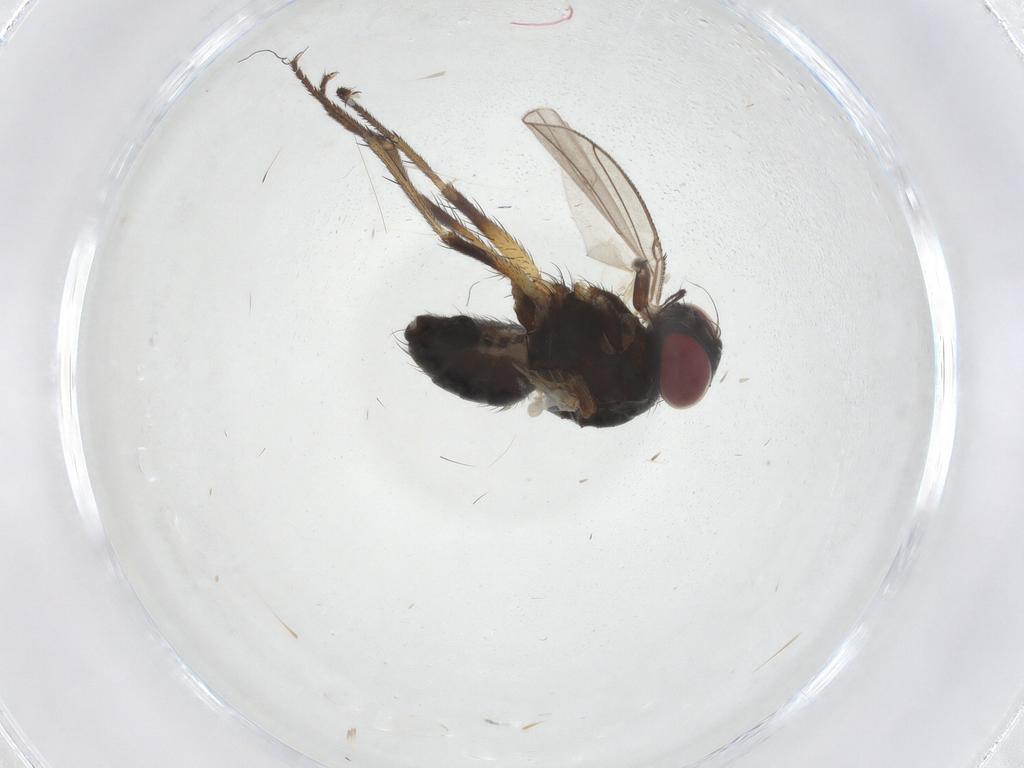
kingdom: Animalia
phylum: Arthropoda
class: Insecta
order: Diptera
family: Muscidae
